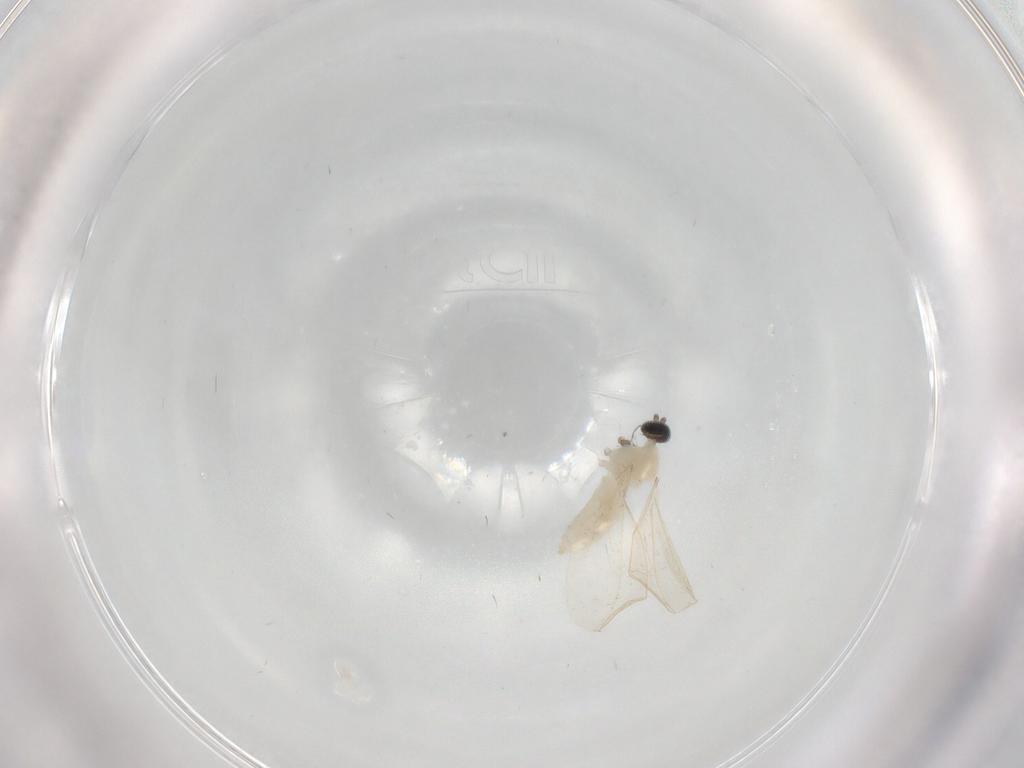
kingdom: Animalia
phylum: Arthropoda
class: Insecta
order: Diptera
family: Cecidomyiidae
